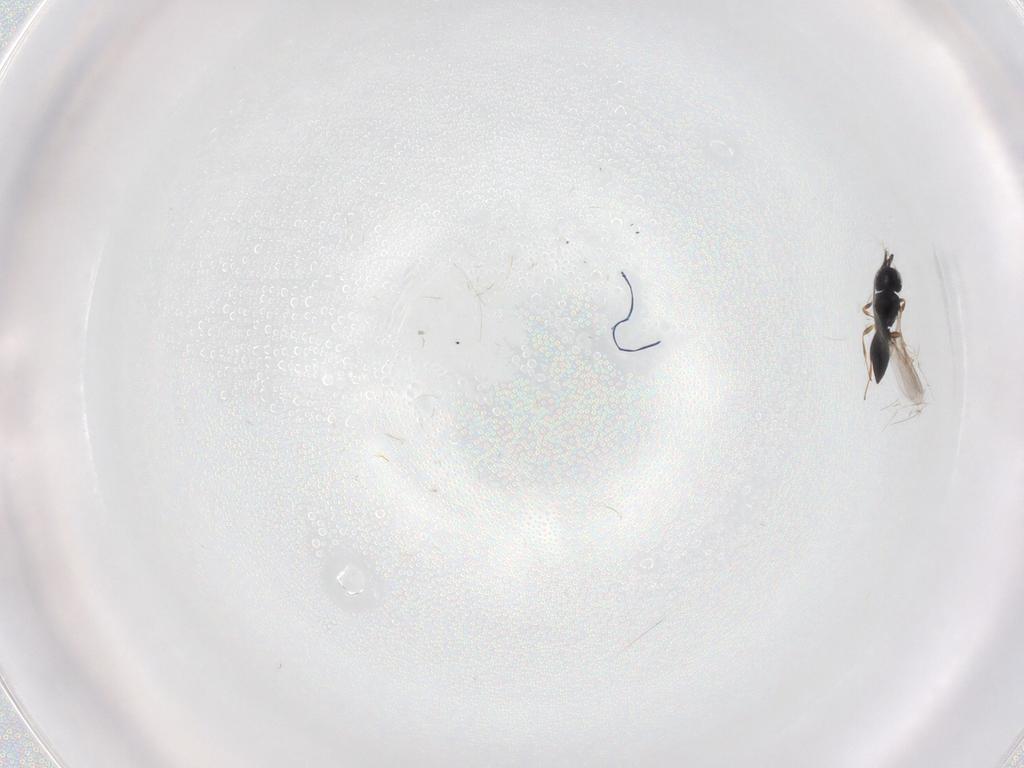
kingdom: Animalia
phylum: Arthropoda
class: Insecta
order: Hymenoptera
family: Scelionidae
